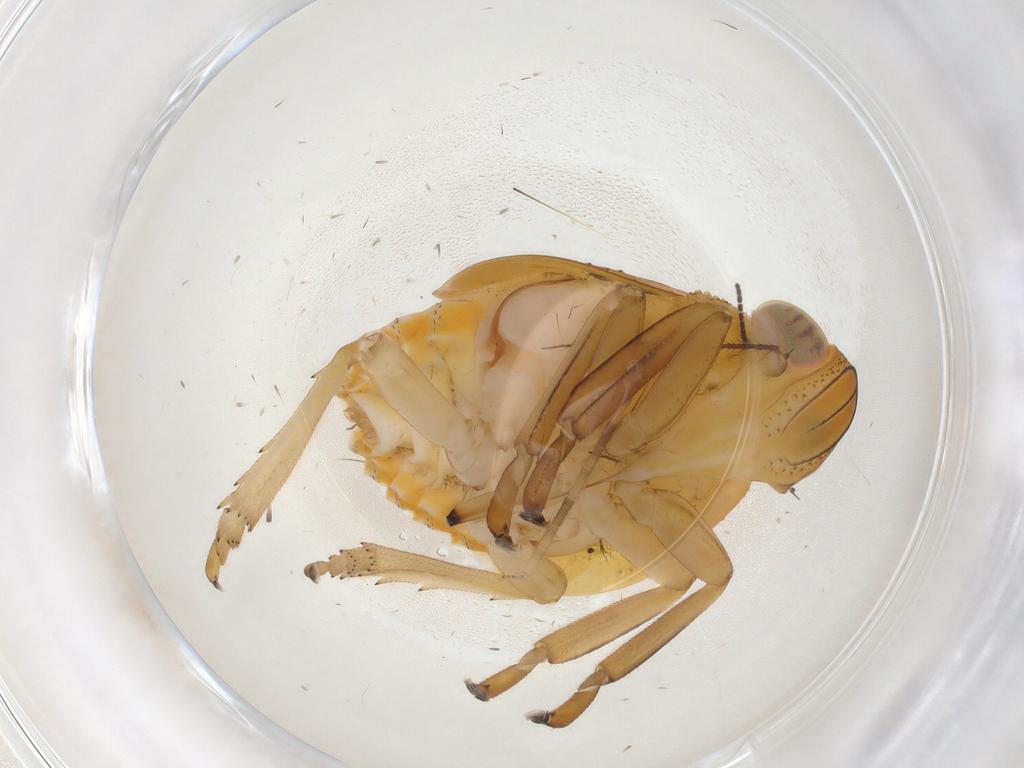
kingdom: Animalia
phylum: Arthropoda
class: Insecta
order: Hemiptera
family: Issidae
